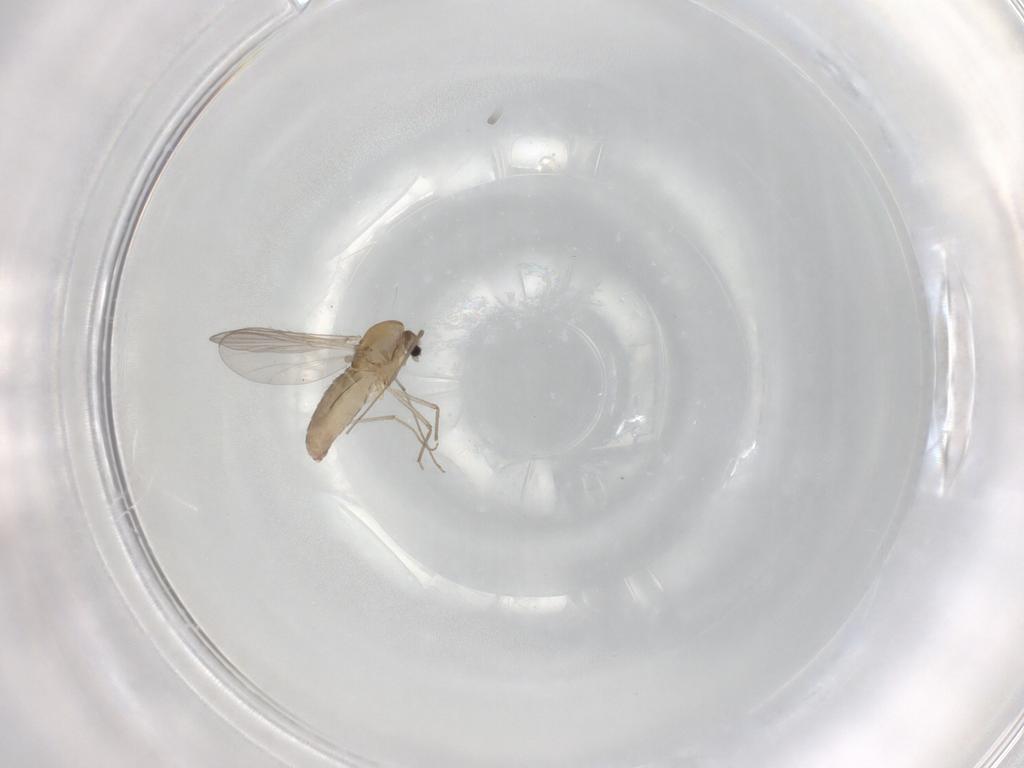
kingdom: Animalia
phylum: Arthropoda
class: Insecta
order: Diptera
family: Chironomidae
